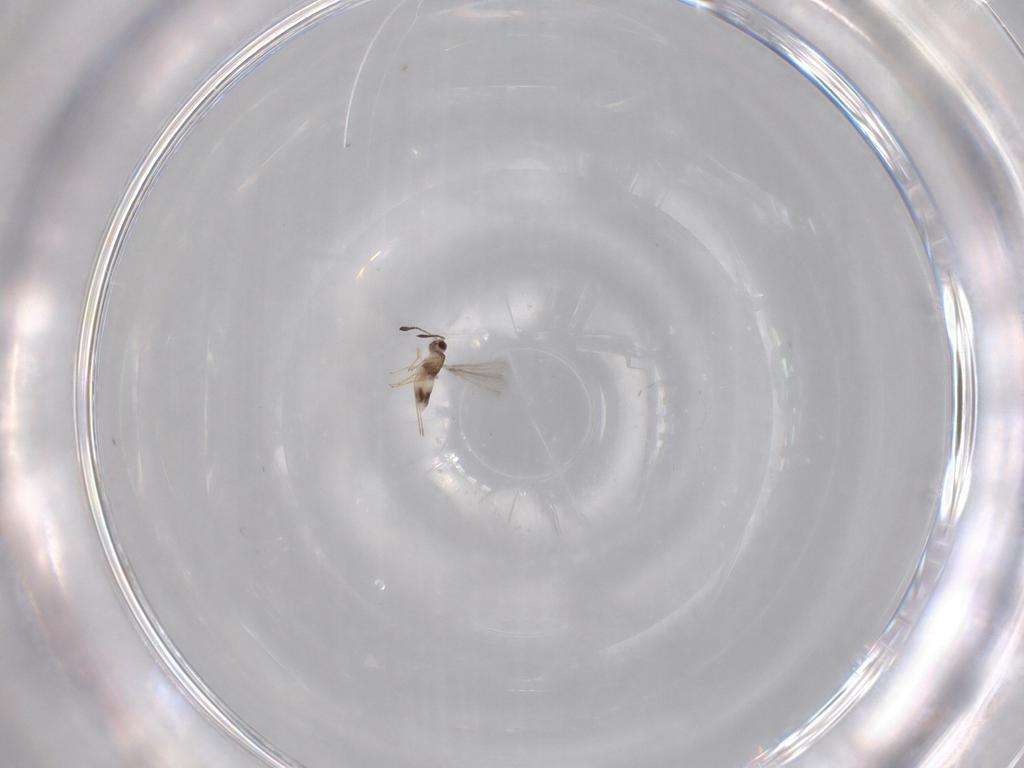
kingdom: Animalia
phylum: Arthropoda
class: Insecta
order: Hymenoptera
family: Mymaridae
